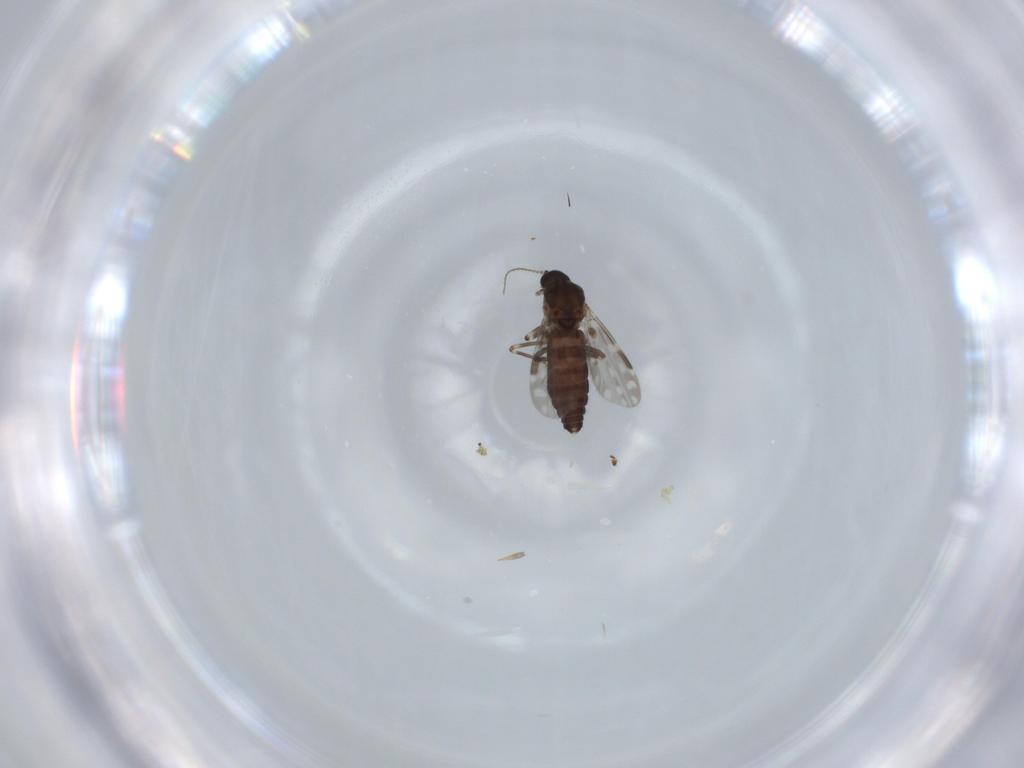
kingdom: Animalia
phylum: Arthropoda
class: Insecta
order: Diptera
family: Ceratopogonidae
